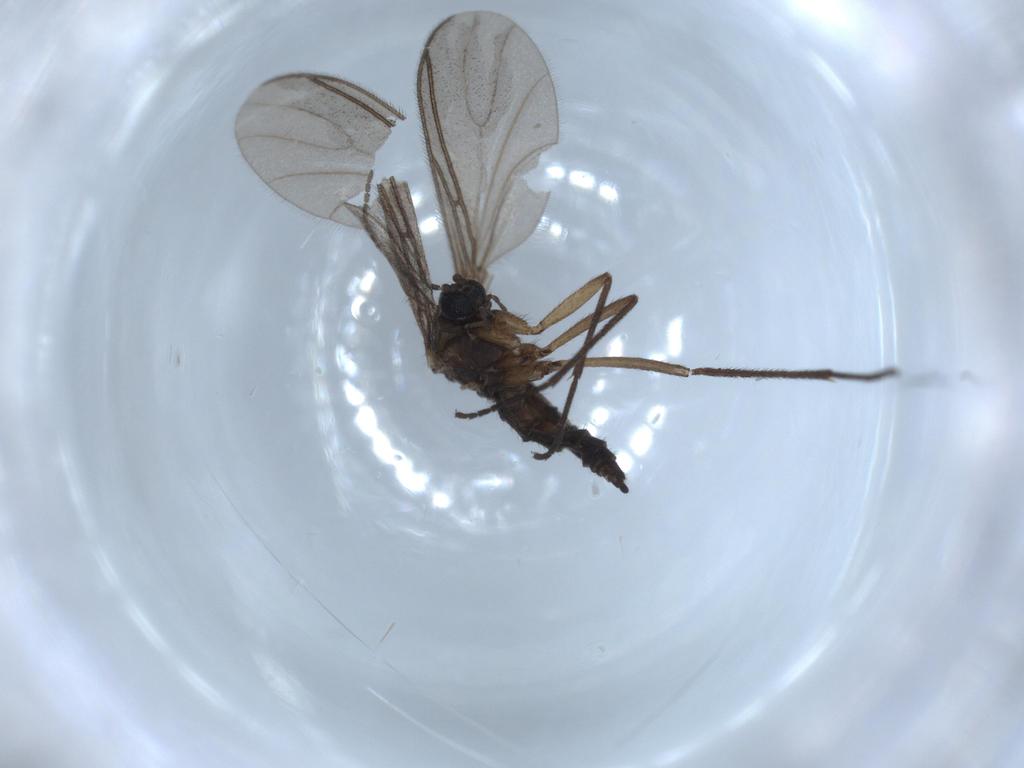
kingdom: Animalia
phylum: Arthropoda
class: Insecta
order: Diptera
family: Sciaridae
